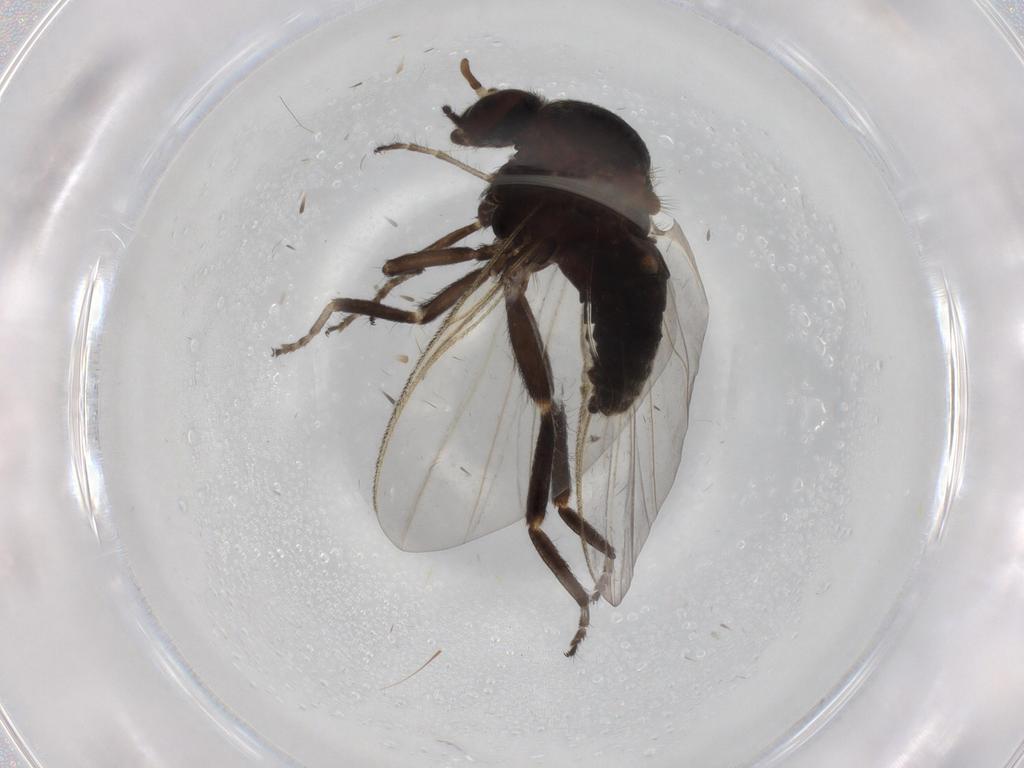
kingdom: Animalia
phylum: Arthropoda
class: Insecta
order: Diptera
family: Cecidomyiidae
